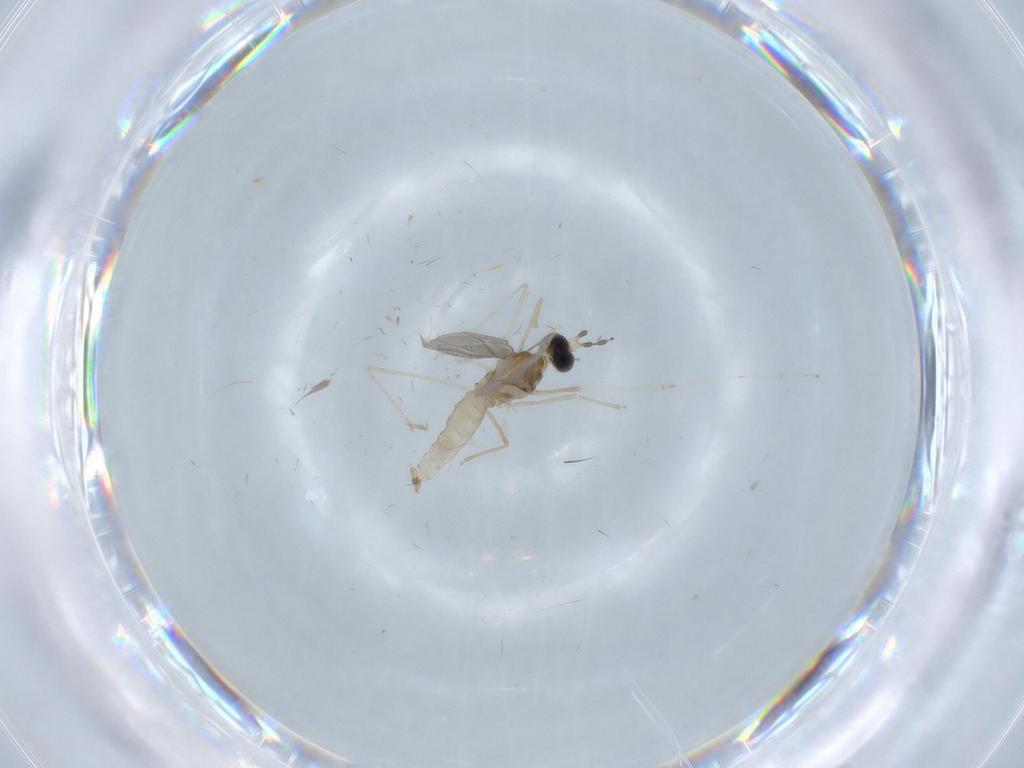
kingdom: Animalia
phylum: Arthropoda
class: Insecta
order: Diptera
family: Cecidomyiidae
